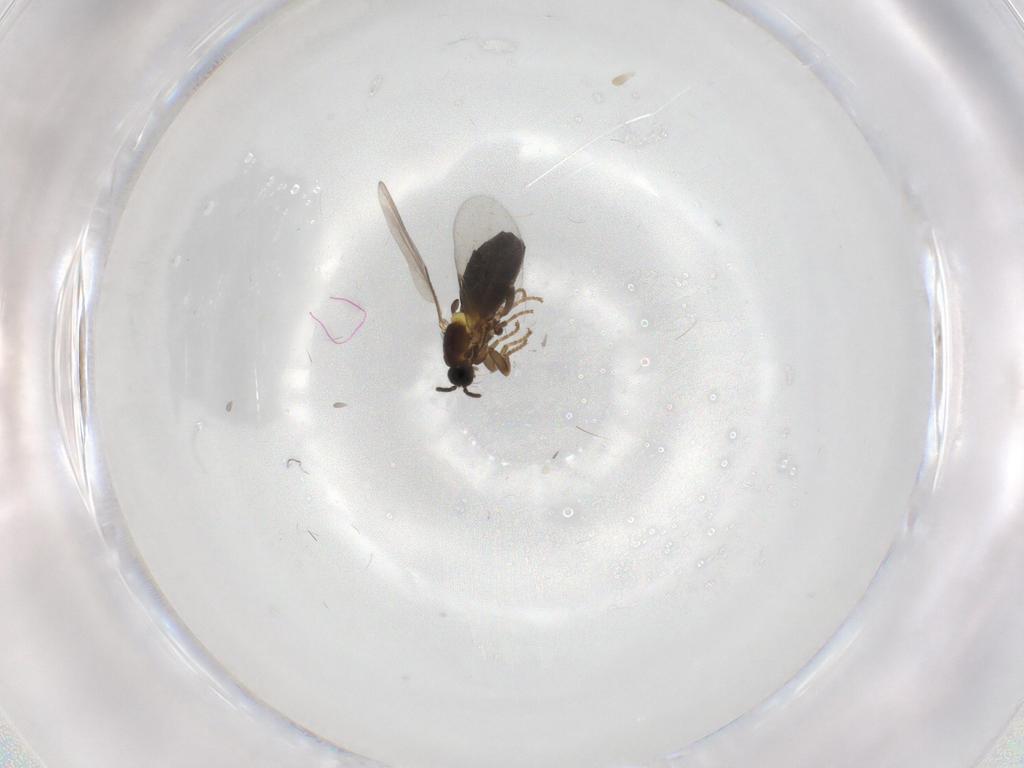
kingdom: Animalia
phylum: Arthropoda
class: Insecta
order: Diptera
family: Scatopsidae
